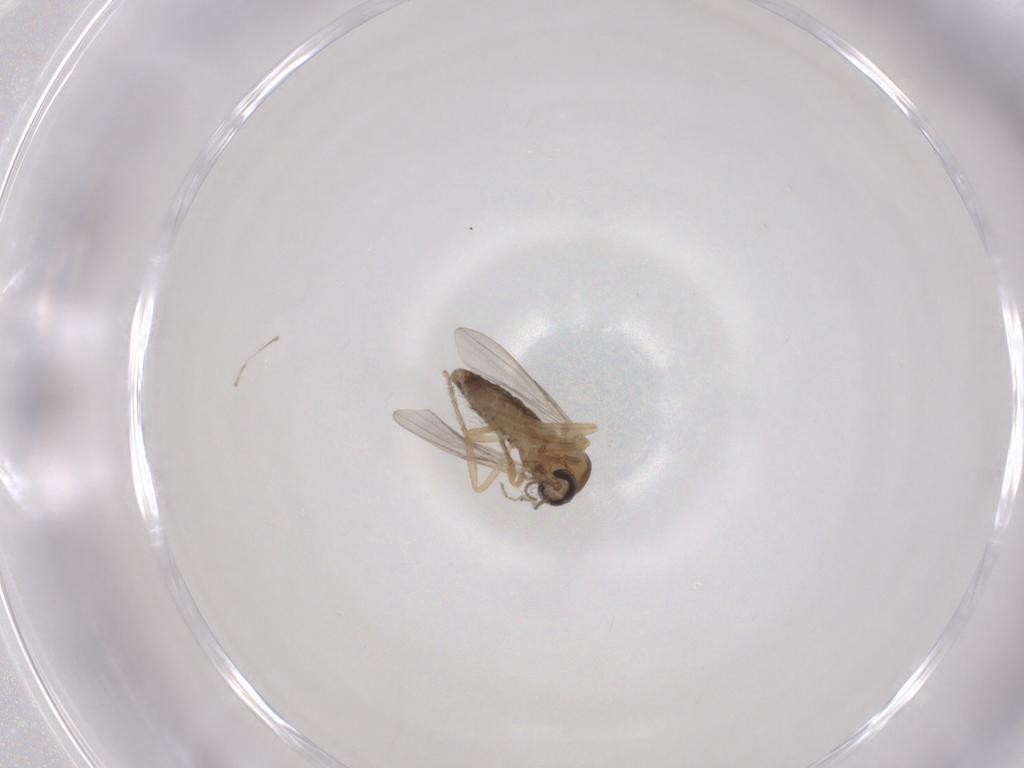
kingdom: Animalia
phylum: Arthropoda
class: Insecta
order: Diptera
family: Ceratopogonidae
